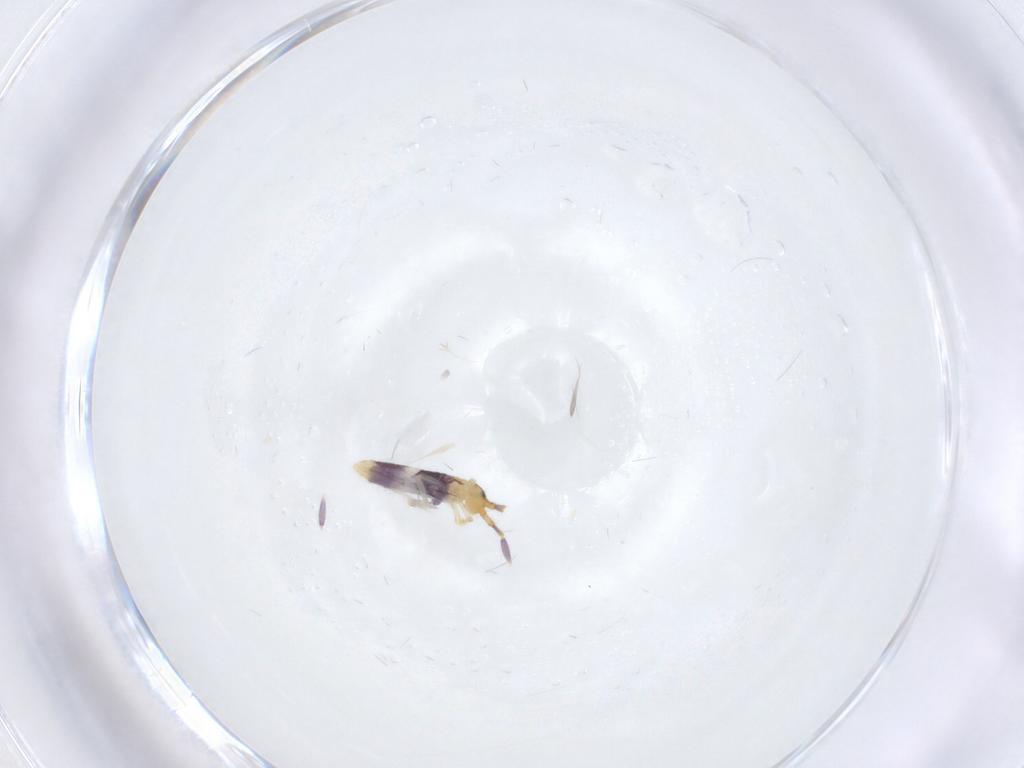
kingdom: Animalia
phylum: Arthropoda
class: Collembola
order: Entomobryomorpha
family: Entomobryidae
